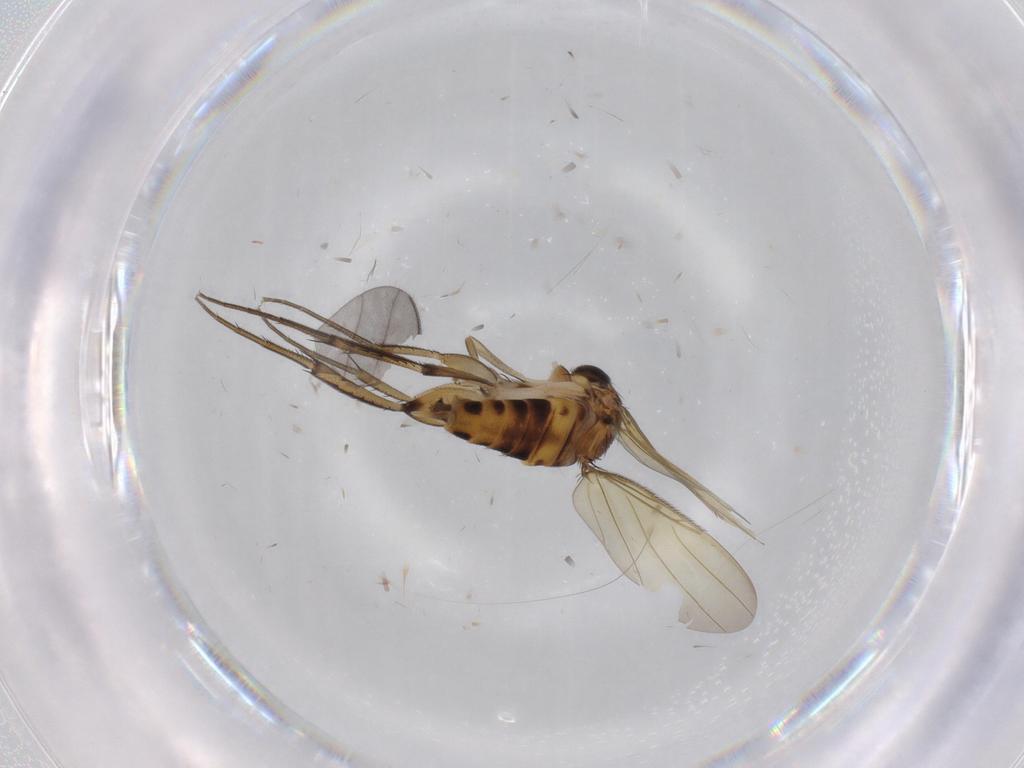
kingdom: Animalia
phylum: Arthropoda
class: Insecta
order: Diptera
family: Phoridae
